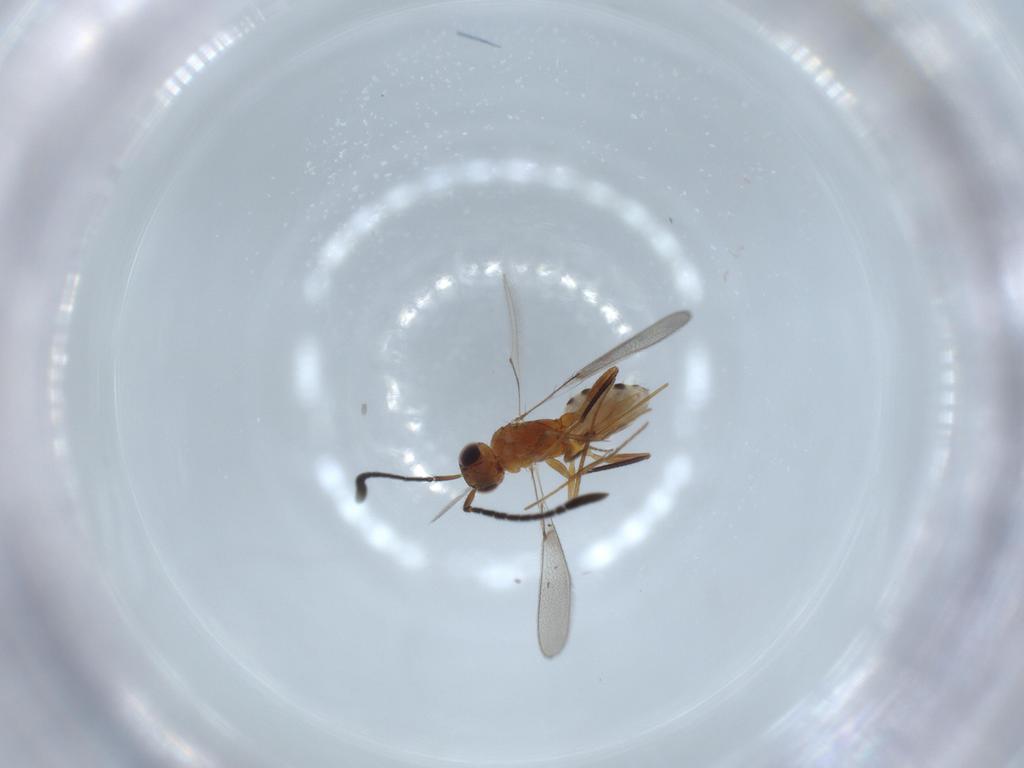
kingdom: Animalia
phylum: Arthropoda
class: Insecta
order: Hymenoptera
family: Mymaridae
